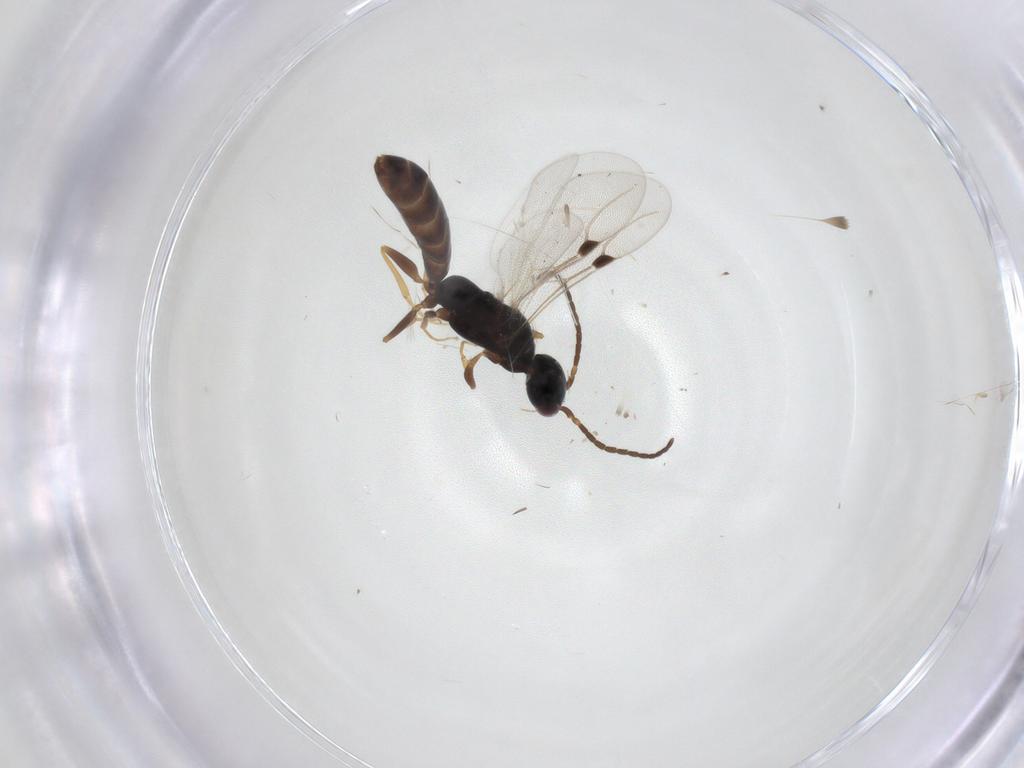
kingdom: Animalia
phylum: Arthropoda
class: Insecta
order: Hymenoptera
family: Bethylidae
